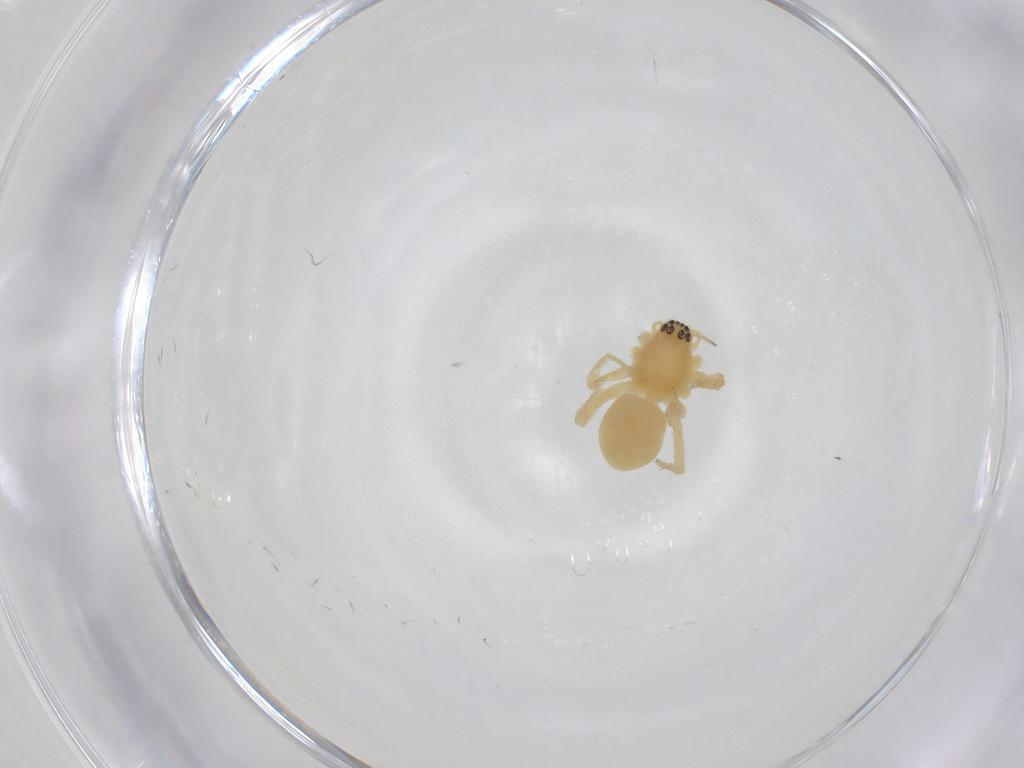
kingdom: Animalia
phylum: Arthropoda
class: Arachnida
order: Araneae
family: Anyphaenidae
